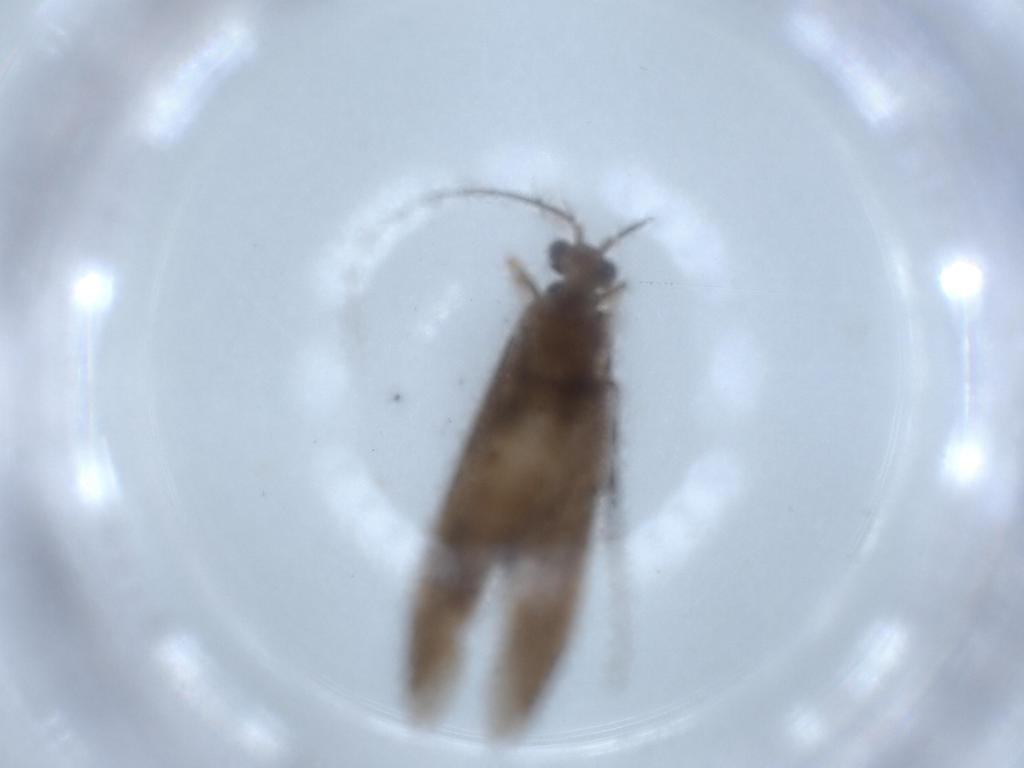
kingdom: Animalia
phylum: Arthropoda
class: Insecta
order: Trichoptera
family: Xiphocentronidae
